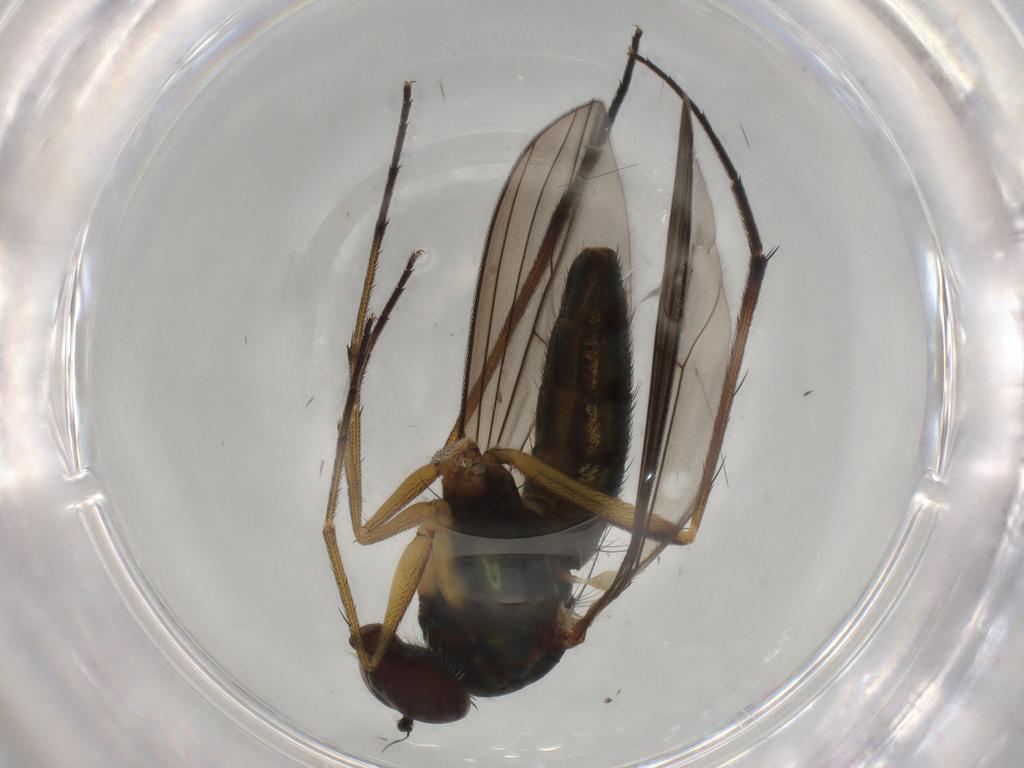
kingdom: Animalia
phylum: Arthropoda
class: Insecta
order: Diptera
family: Dolichopodidae
